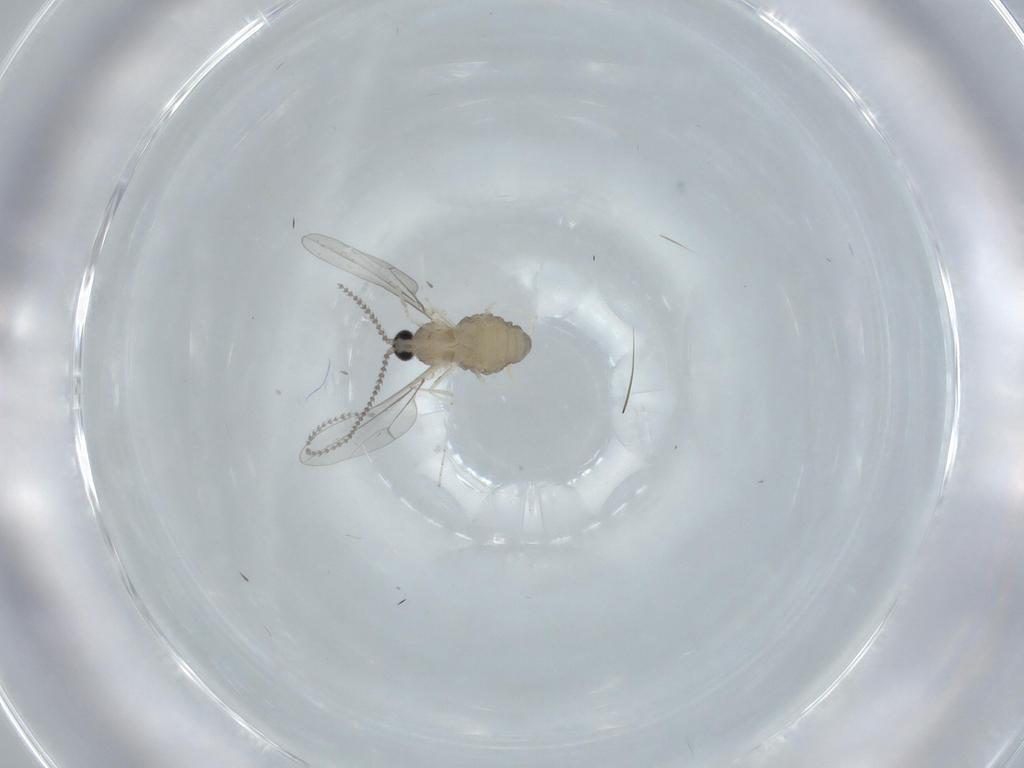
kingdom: Animalia
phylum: Arthropoda
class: Insecta
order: Diptera
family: Cecidomyiidae
